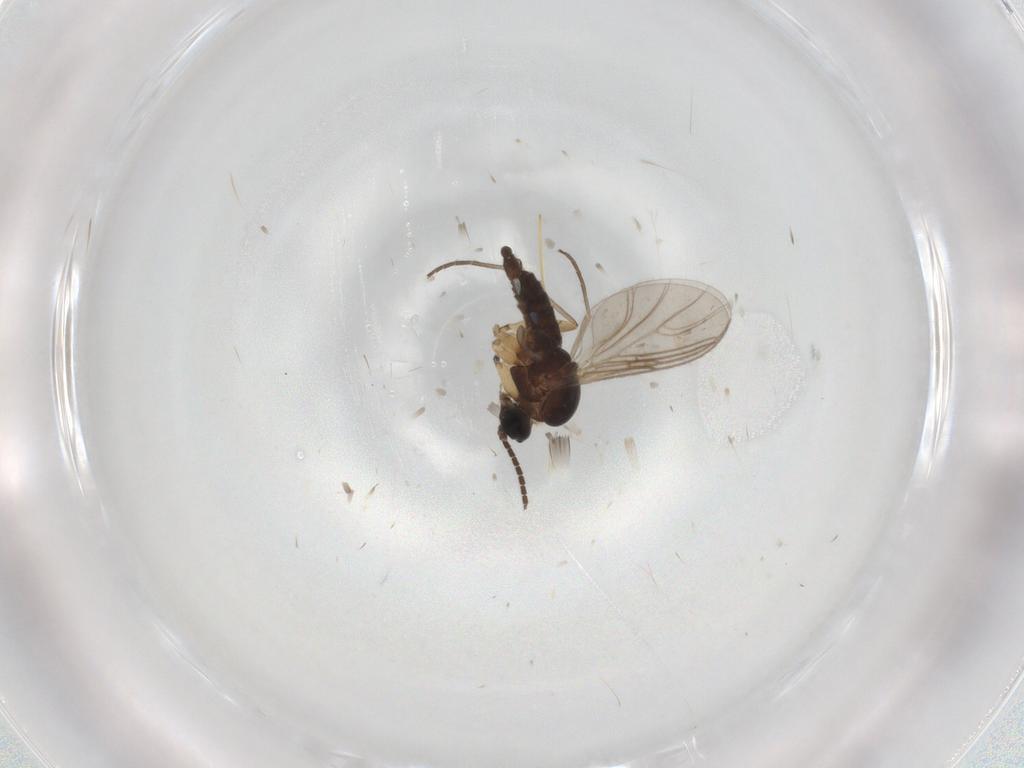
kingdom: Animalia
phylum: Arthropoda
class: Insecta
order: Diptera
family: Sciaridae
